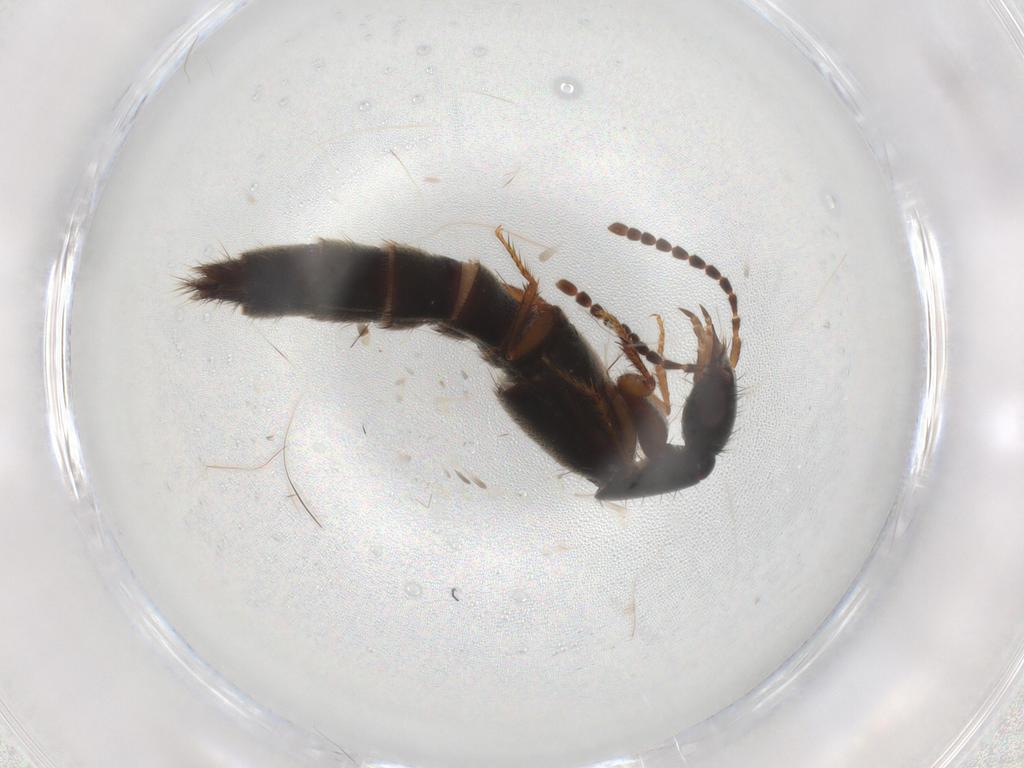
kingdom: Animalia
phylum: Arthropoda
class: Insecta
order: Coleoptera
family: Staphylinidae
